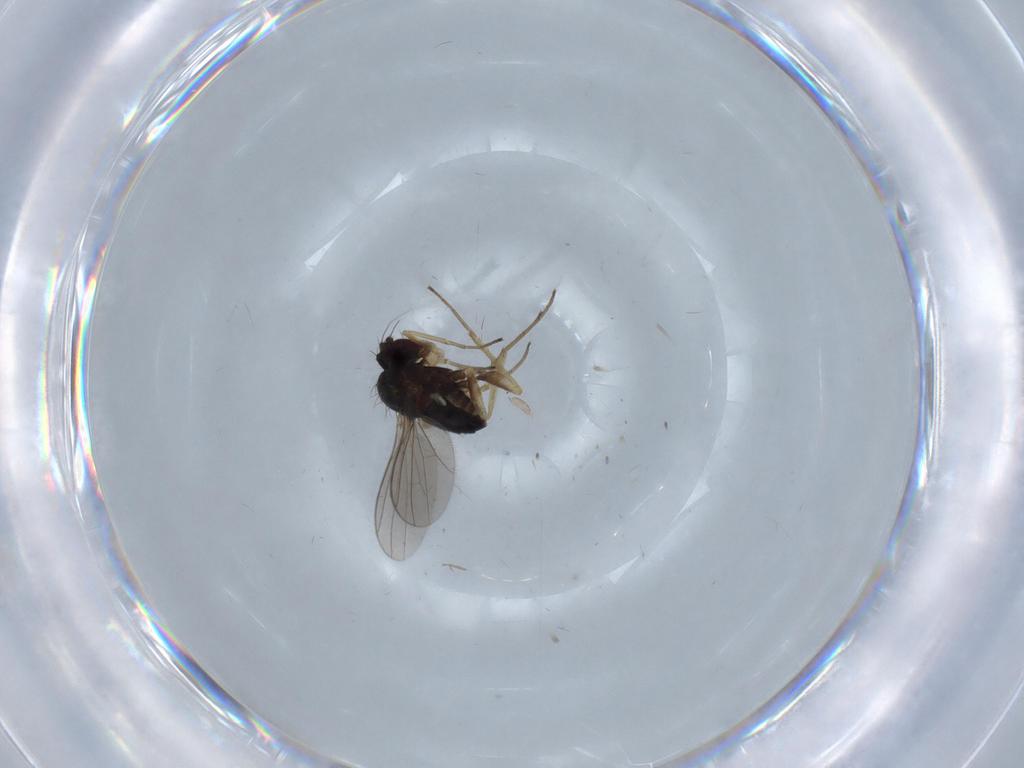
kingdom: Animalia
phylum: Arthropoda
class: Insecta
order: Diptera
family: Dolichopodidae
